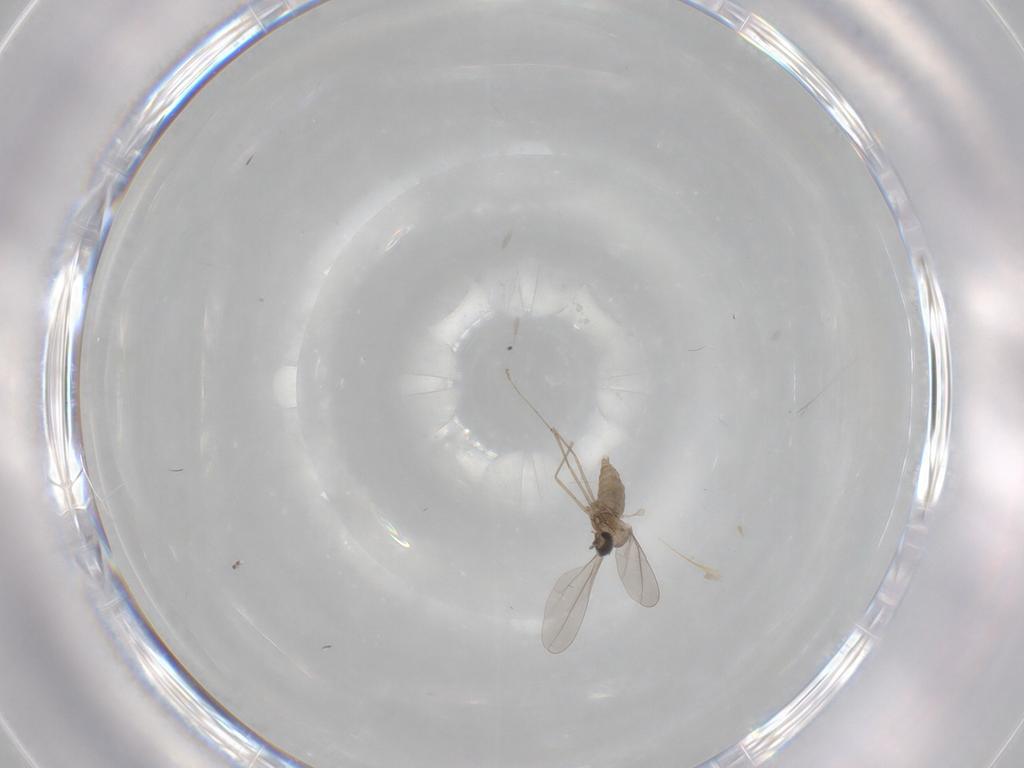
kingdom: Animalia
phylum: Arthropoda
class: Insecta
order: Diptera
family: Cecidomyiidae
